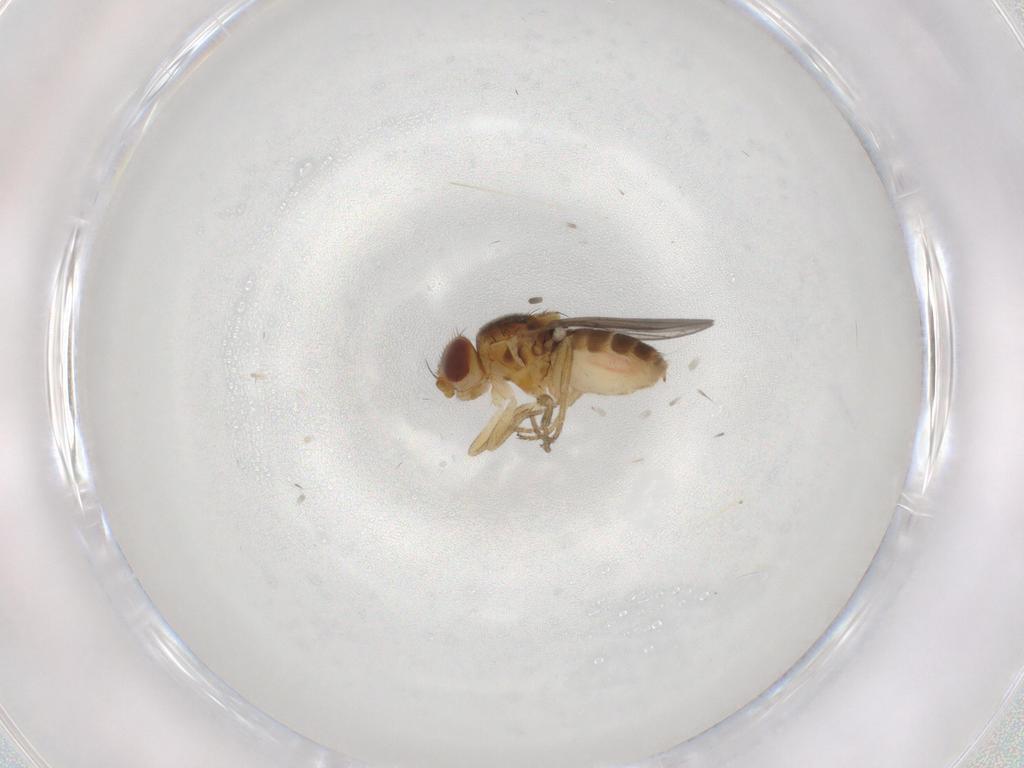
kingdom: Animalia
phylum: Arthropoda
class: Insecta
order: Diptera
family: Chloropidae
